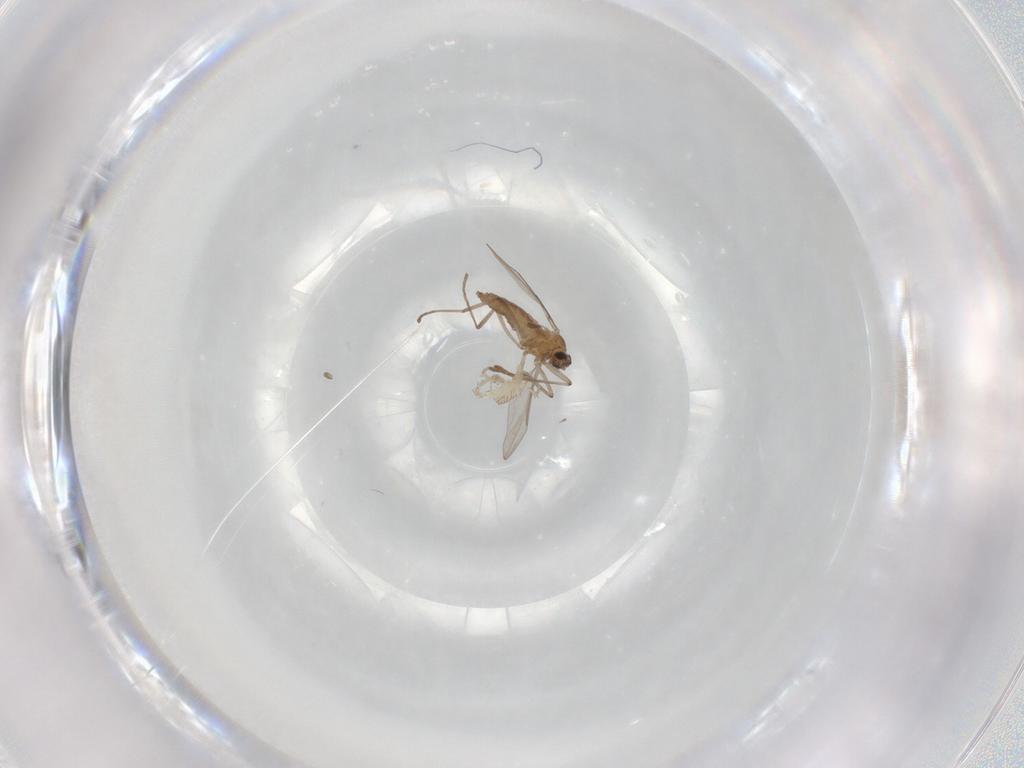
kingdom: Animalia
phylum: Arthropoda
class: Insecta
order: Diptera
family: Cecidomyiidae
